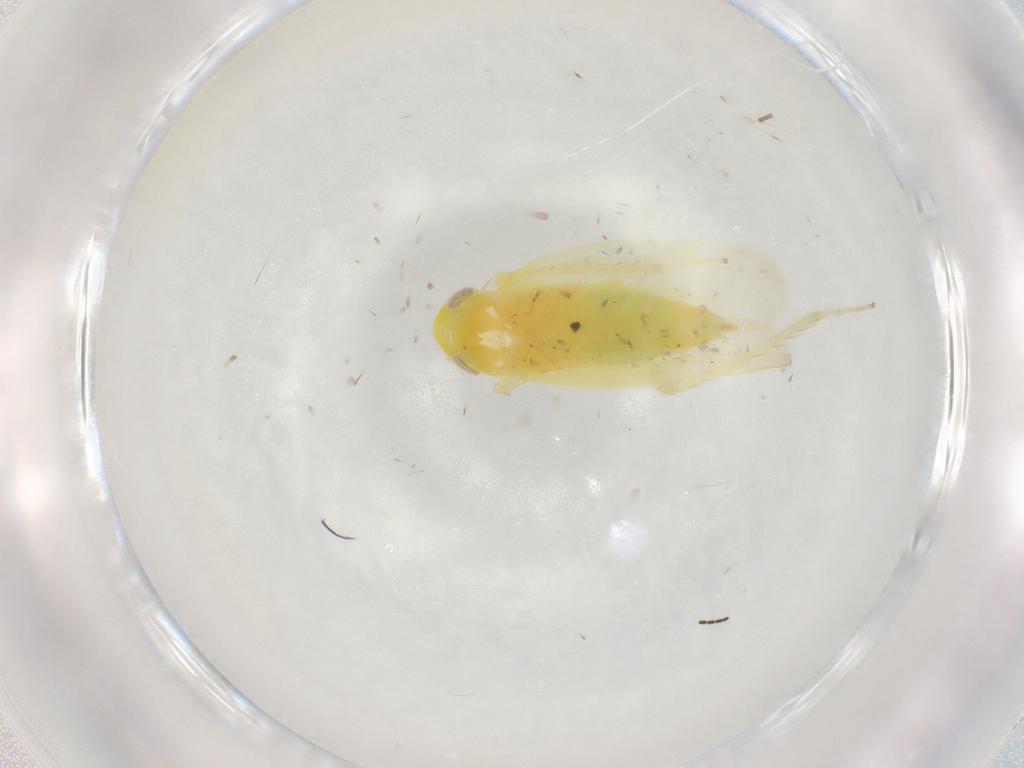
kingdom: Animalia
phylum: Arthropoda
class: Insecta
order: Hemiptera
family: Cicadellidae
